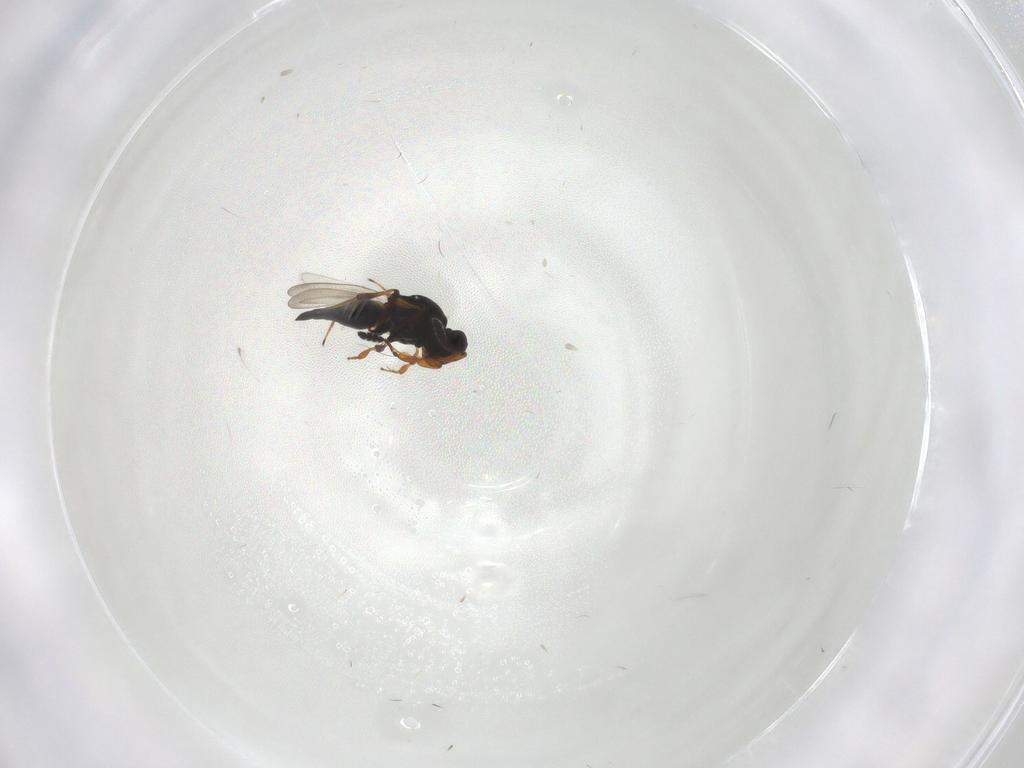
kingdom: Animalia
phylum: Arthropoda
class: Insecta
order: Hymenoptera
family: Platygastridae
